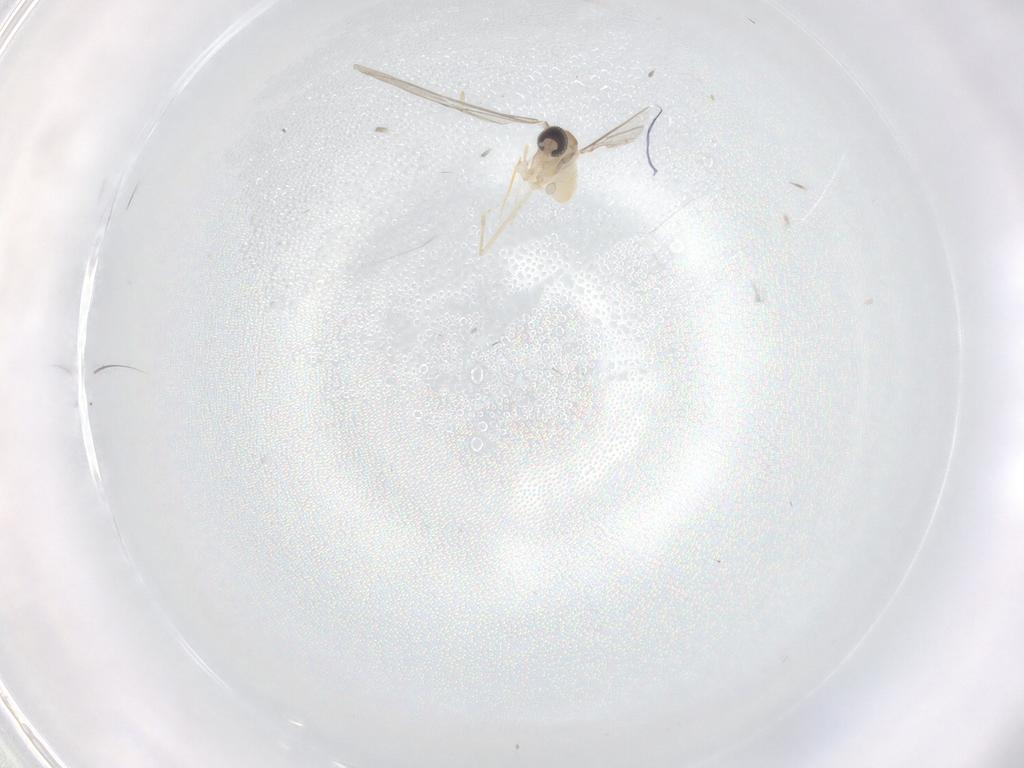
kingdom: Animalia
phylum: Arthropoda
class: Insecta
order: Diptera
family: Cecidomyiidae
